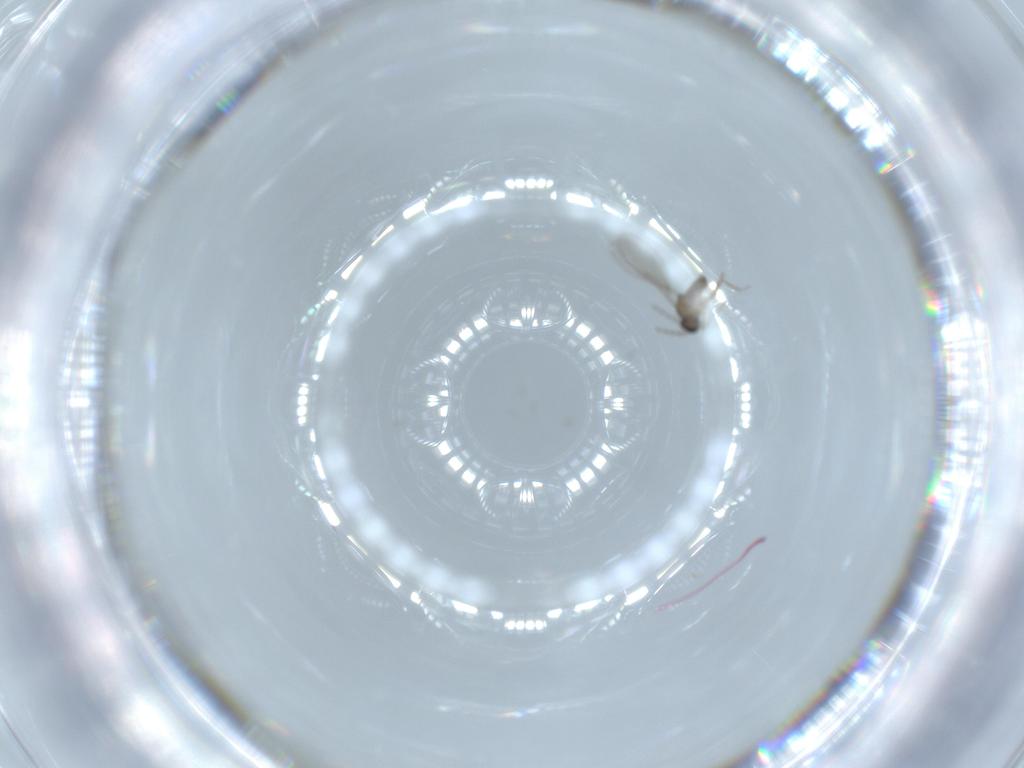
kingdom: Animalia
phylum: Arthropoda
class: Insecta
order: Diptera
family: Cecidomyiidae
